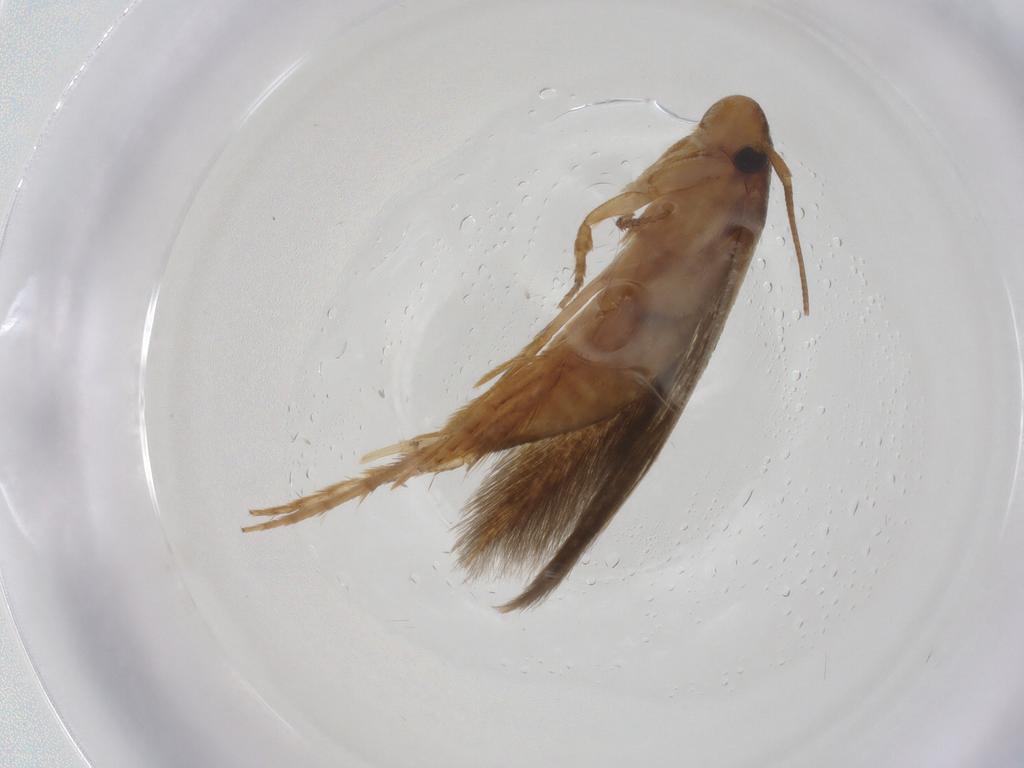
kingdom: Animalia
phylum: Arthropoda
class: Insecta
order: Lepidoptera
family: Tineidae
